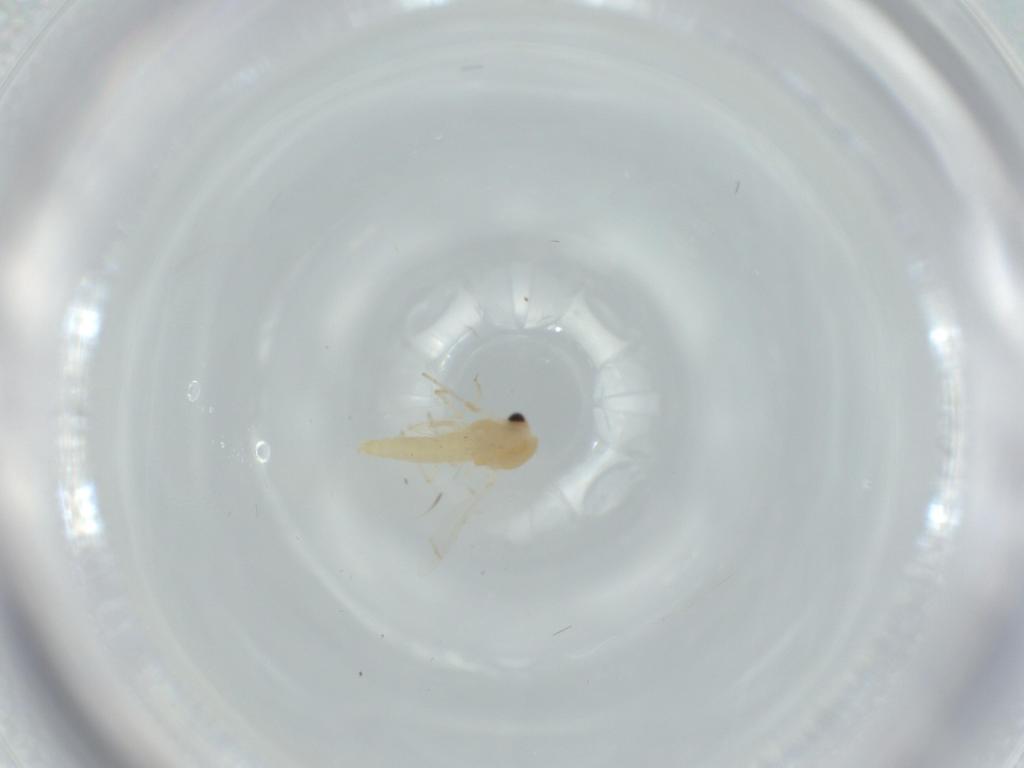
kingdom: Animalia
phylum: Arthropoda
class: Insecta
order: Diptera
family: Chironomidae
